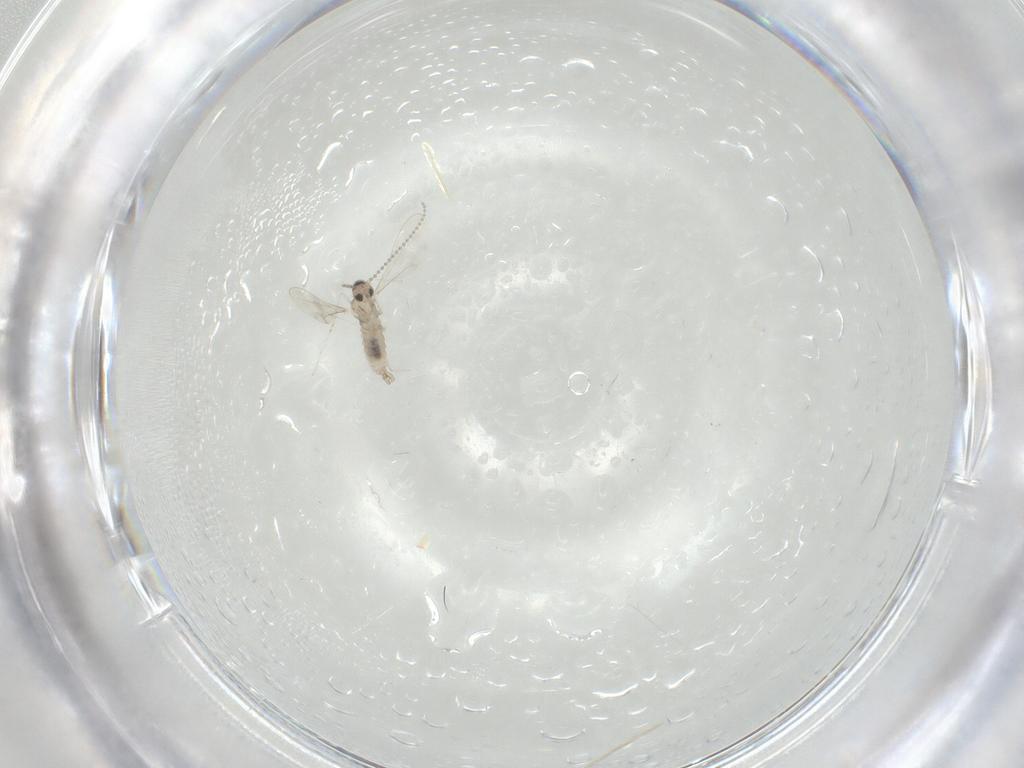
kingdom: Animalia
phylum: Arthropoda
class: Insecta
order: Diptera
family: Cecidomyiidae
